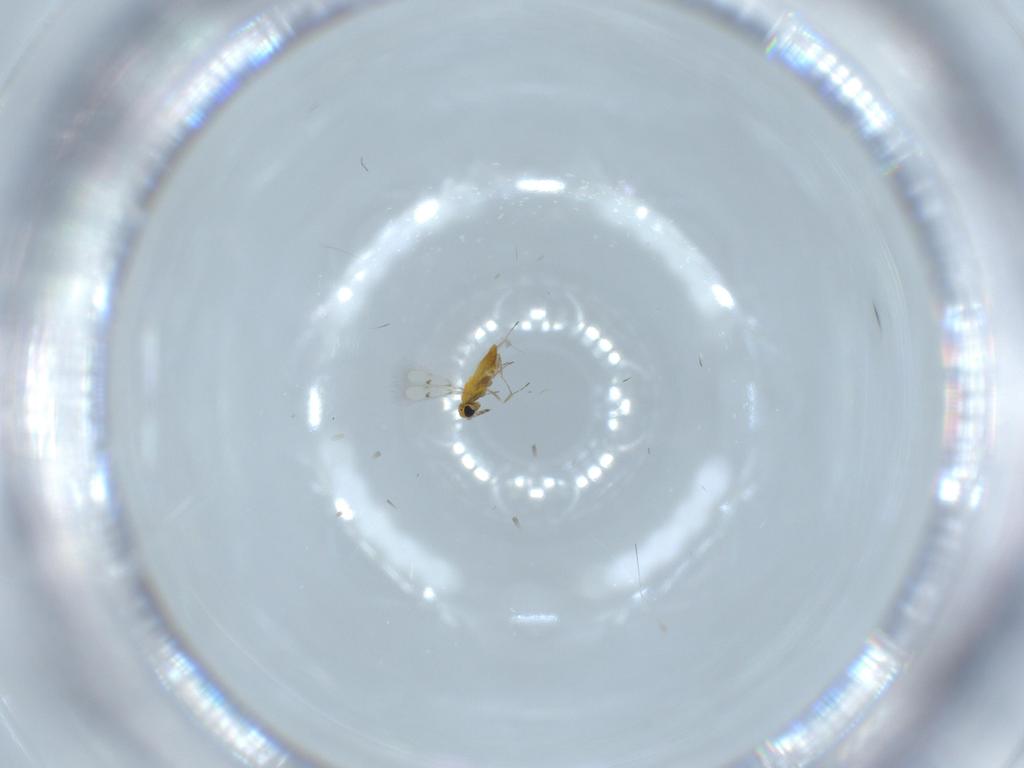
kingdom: Animalia
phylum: Arthropoda
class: Insecta
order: Hymenoptera
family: Trichogrammatidae
